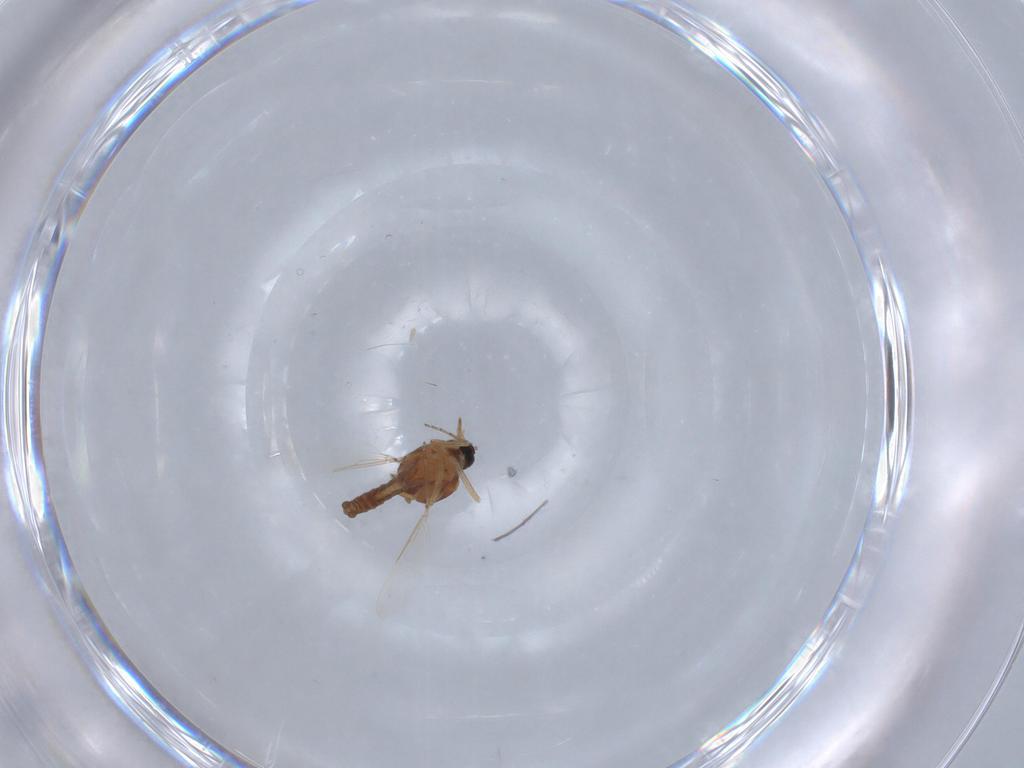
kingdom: Animalia
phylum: Arthropoda
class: Insecta
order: Diptera
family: Ceratopogonidae
